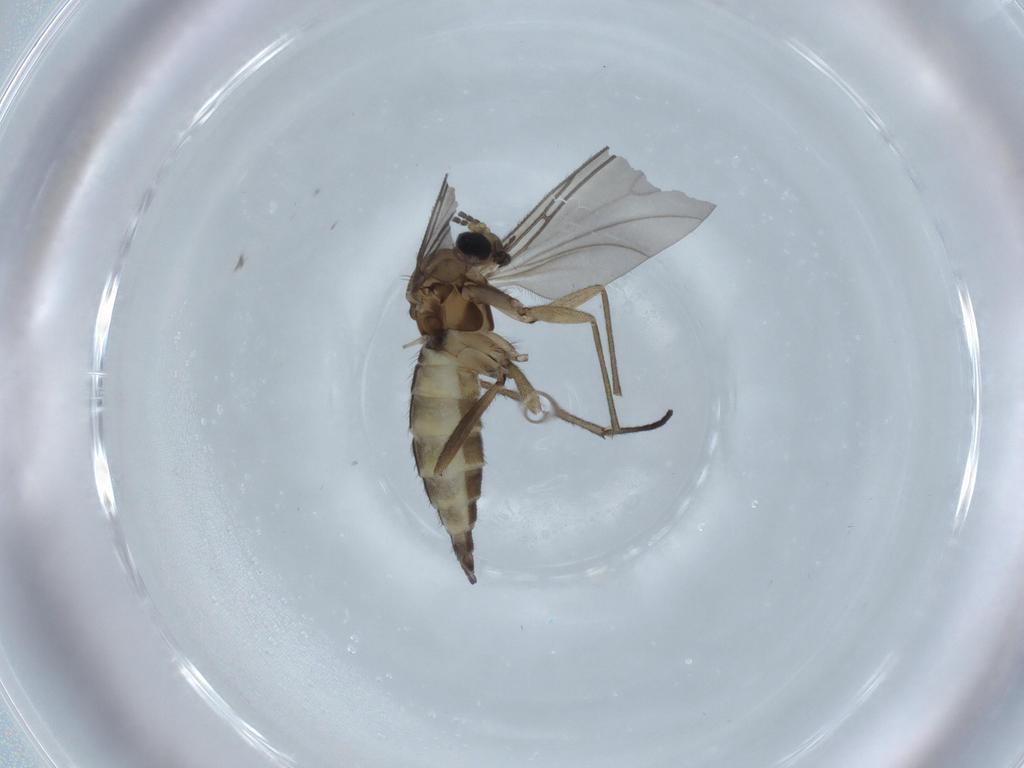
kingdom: Animalia
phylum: Arthropoda
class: Insecta
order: Diptera
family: Sciaridae
